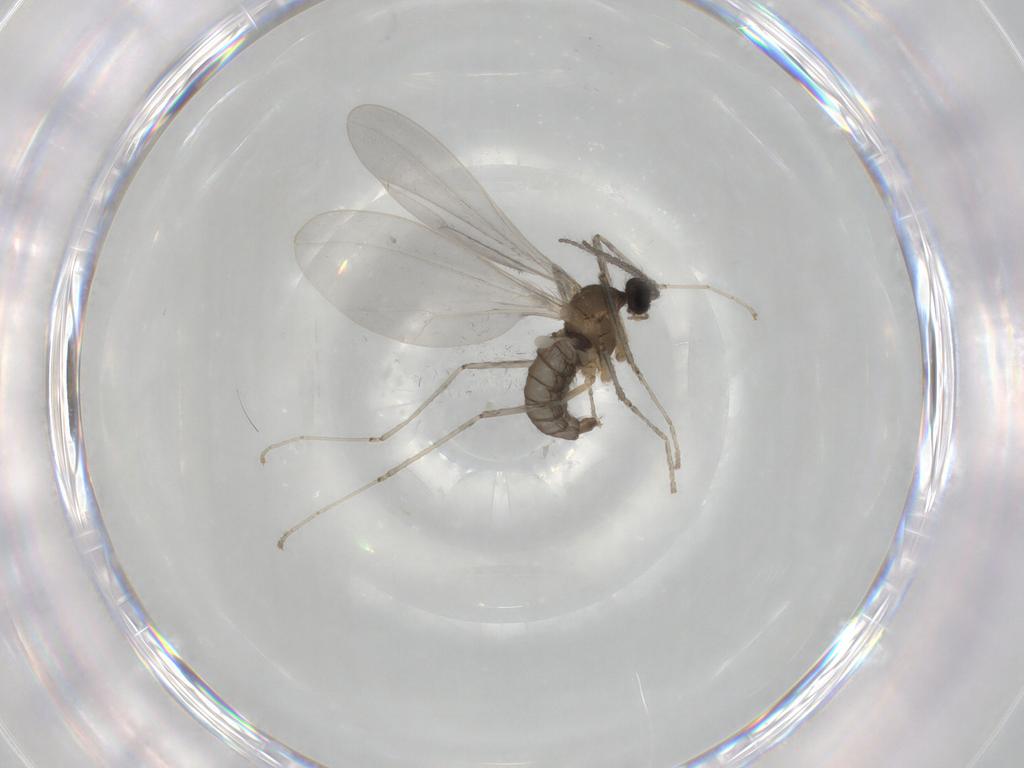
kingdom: Animalia
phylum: Arthropoda
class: Insecta
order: Diptera
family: Cecidomyiidae
